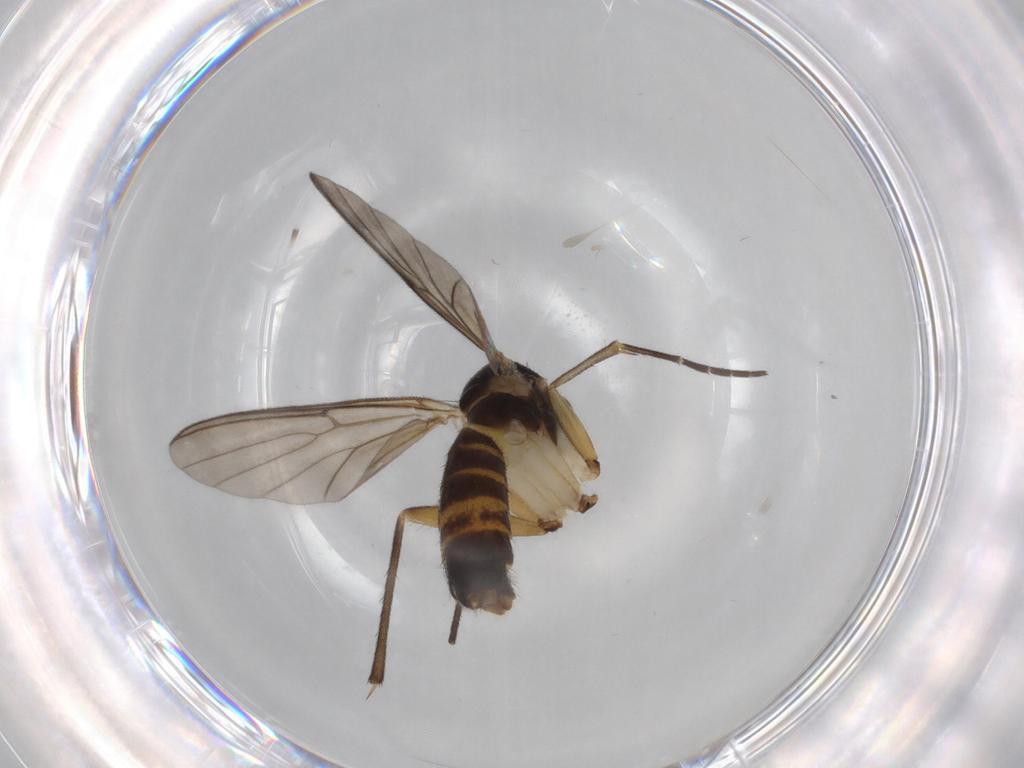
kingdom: Animalia
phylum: Arthropoda
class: Insecta
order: Diptera
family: Mycetophilidae
